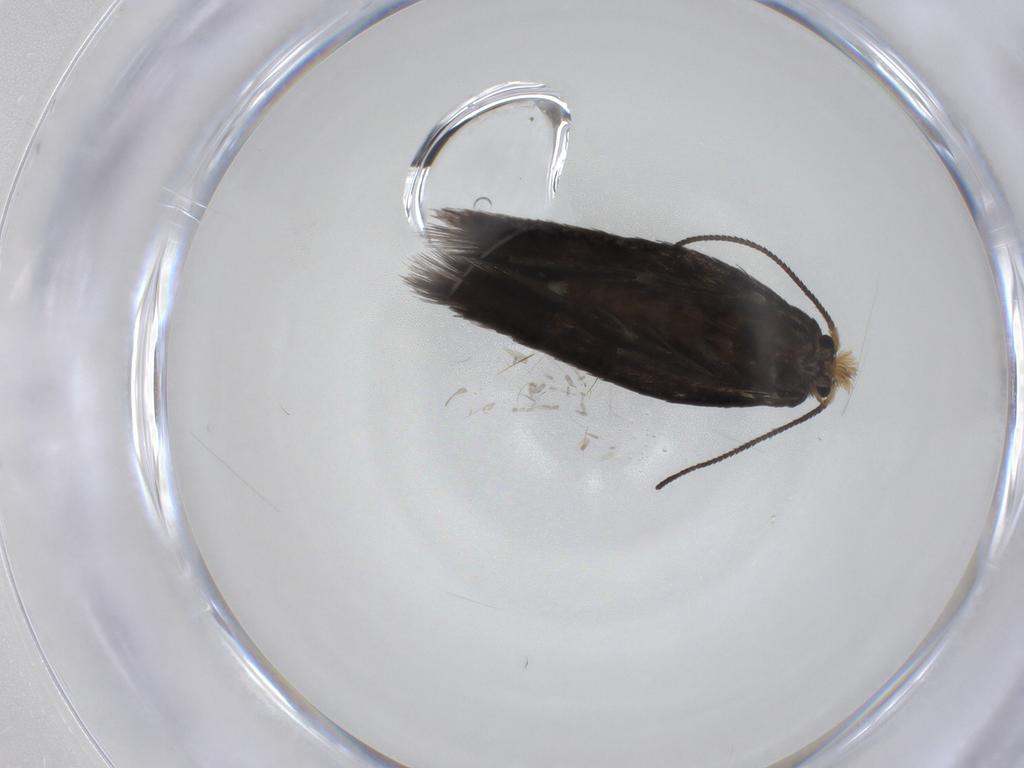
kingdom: Animalia
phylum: Arthropoda
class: Insecta
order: Lepidoptera
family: Nepticulidae
